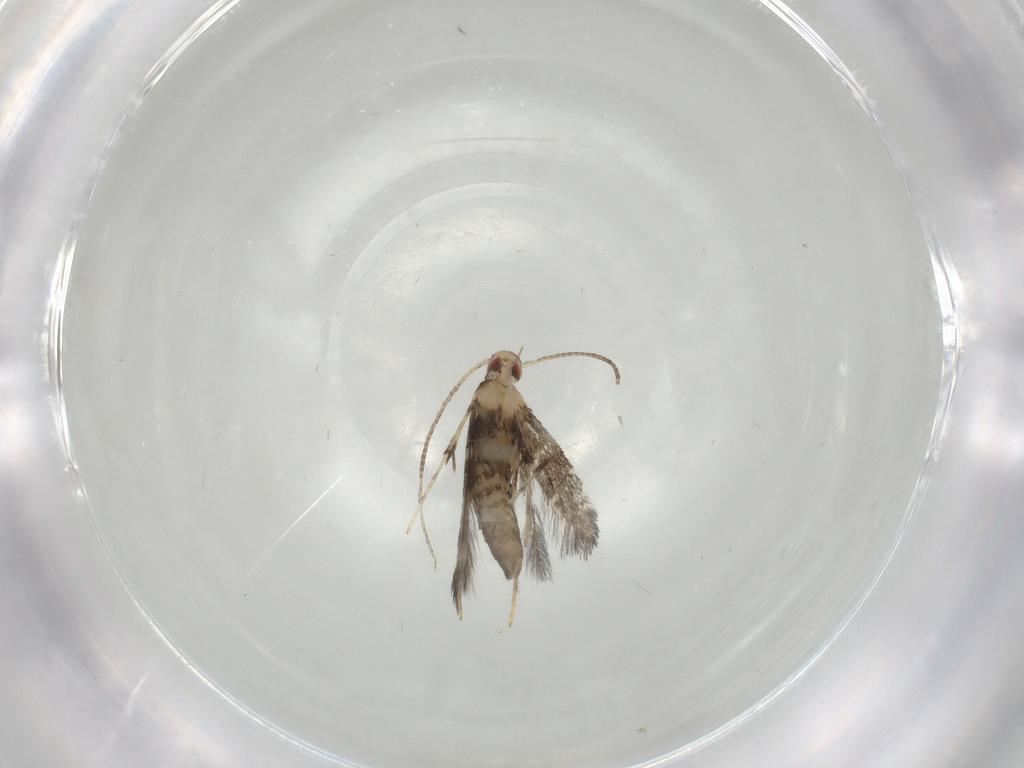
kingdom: Animalia
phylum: Arthropoda
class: Insecta
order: Lepidoptera
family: Gracillariidae
